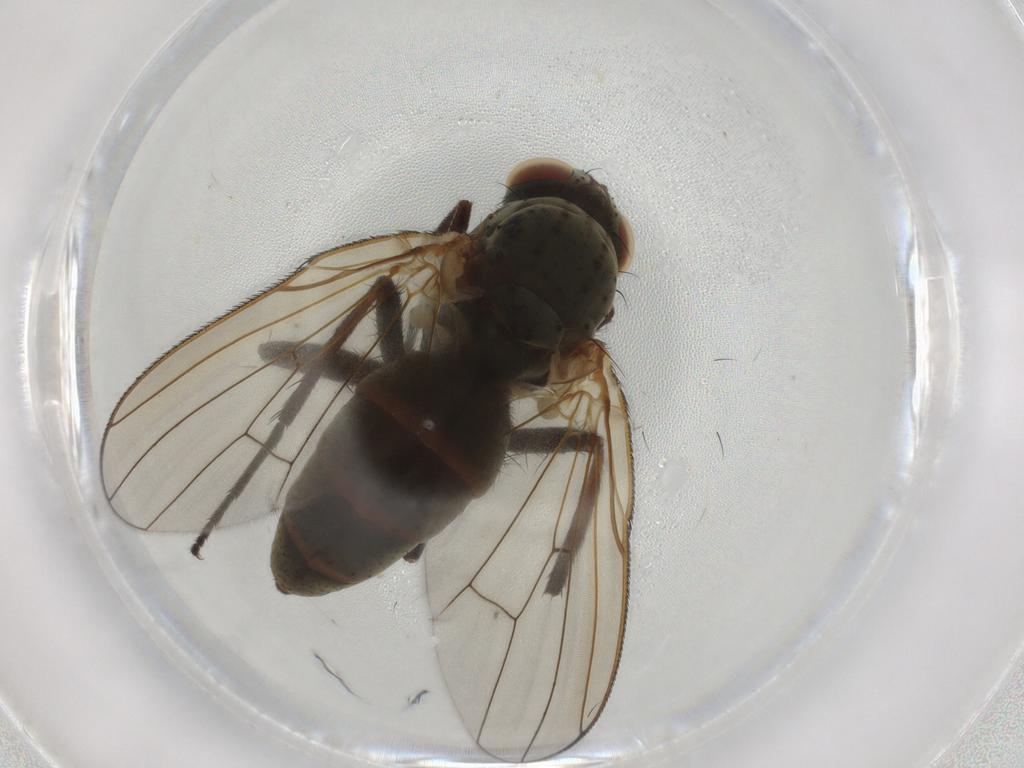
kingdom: Animalia
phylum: Arthropoda
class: Insecta
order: Diptera
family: Anthomyiidae
